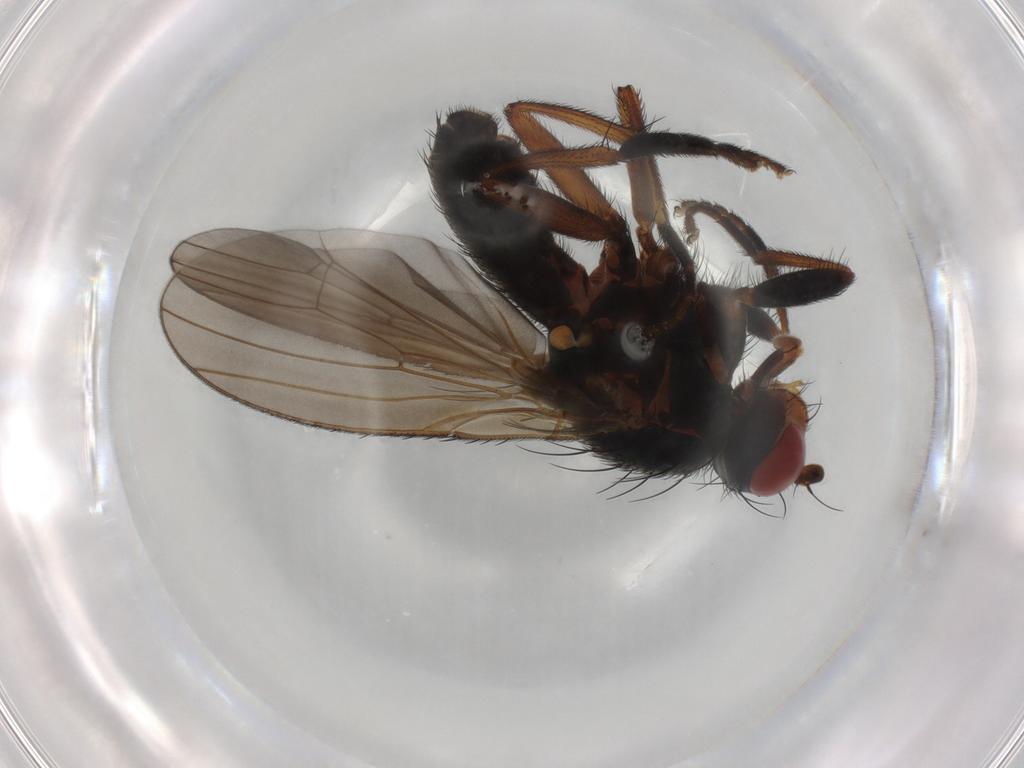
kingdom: Animalia
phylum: Arthropoda
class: Insecta
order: Diptera
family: Heleomyzidae
